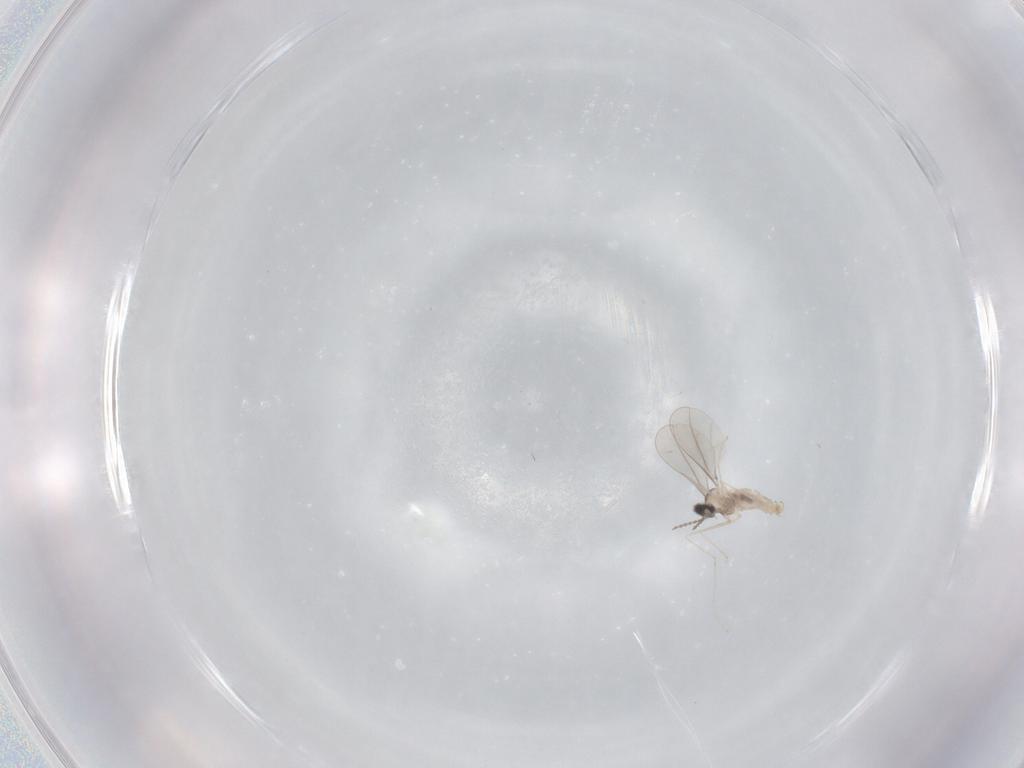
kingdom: Animalia
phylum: Arthropoda
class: Insecta
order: Diptera
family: Cecidomyiidae
